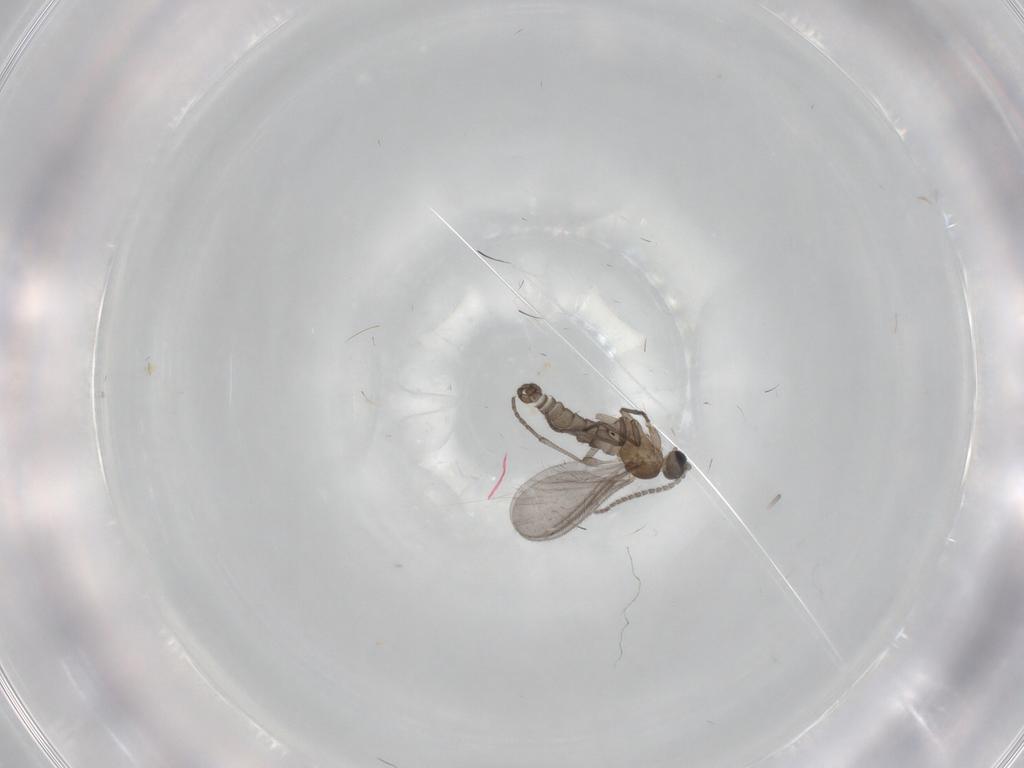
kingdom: Animalia
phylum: Arthropoda
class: Insecta
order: Diptera
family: Sciaridae
